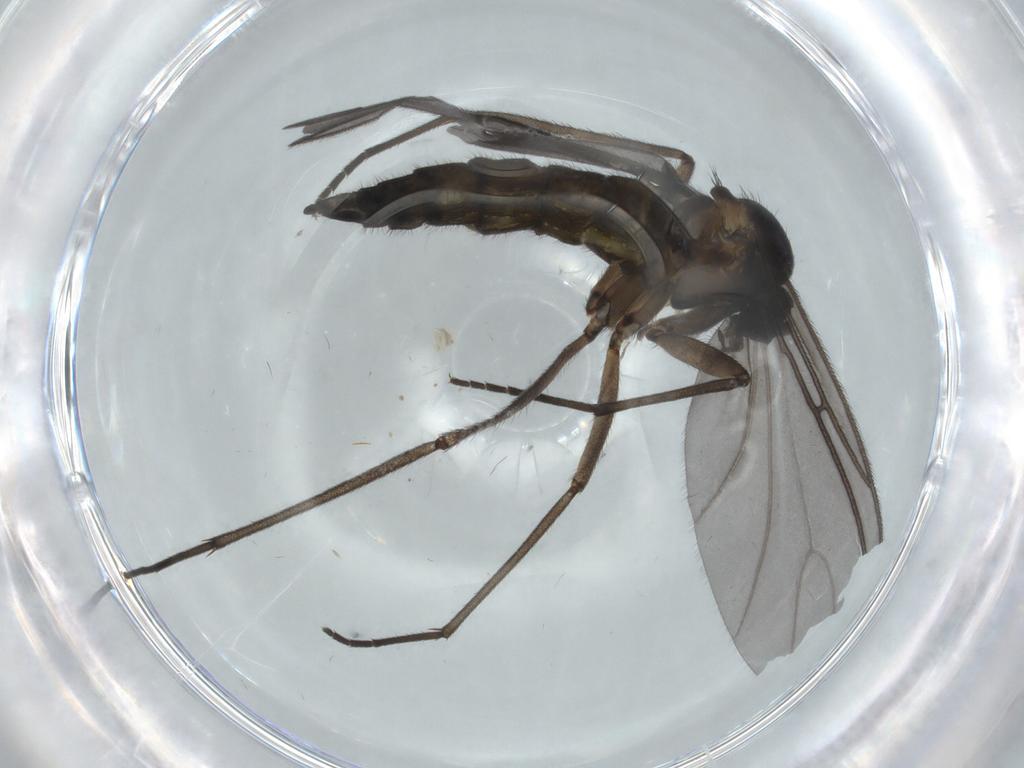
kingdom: Animalia
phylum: Arthropoda
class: Insecta
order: Diptera
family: Sciaridae
